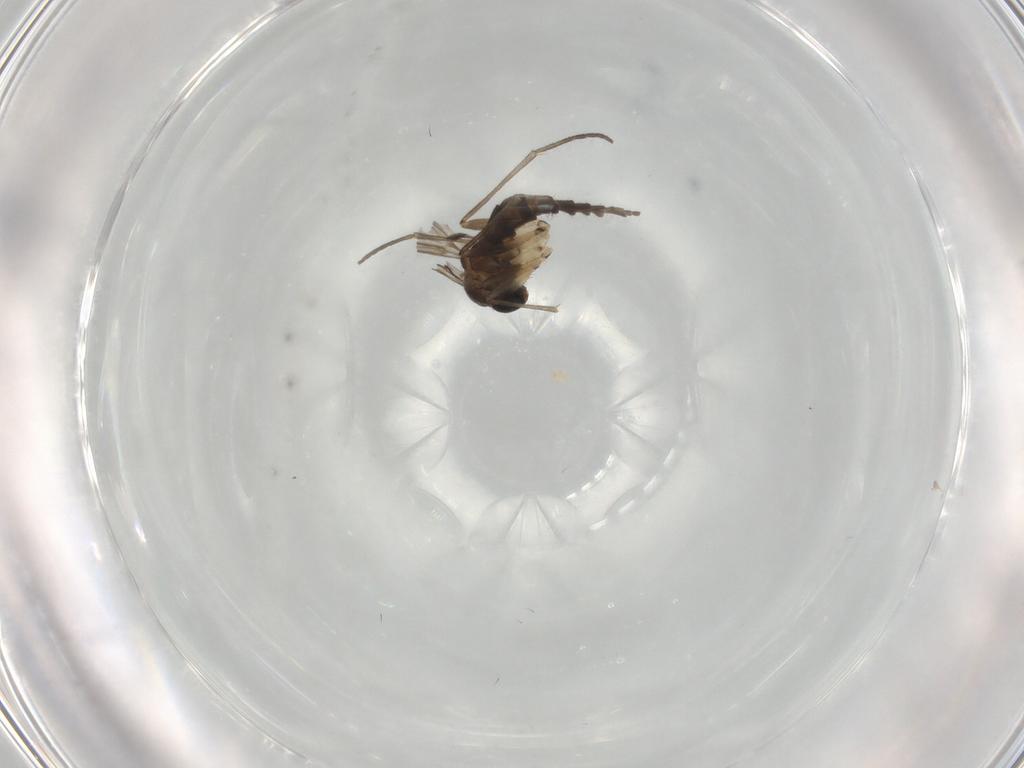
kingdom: Animalia
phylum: Arthropoda
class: Insecta
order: Diptera
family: Sciaridae
